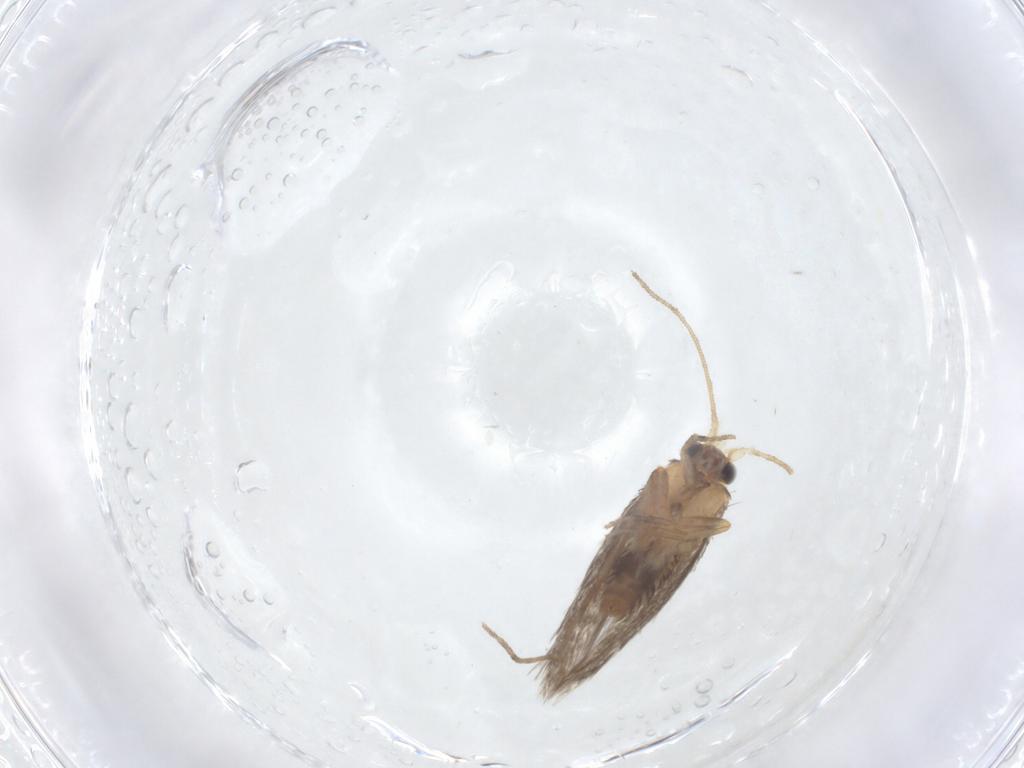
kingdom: Animalia
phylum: Arthropoda
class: Insecta
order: Lepidoptera
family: Nepticulidae
